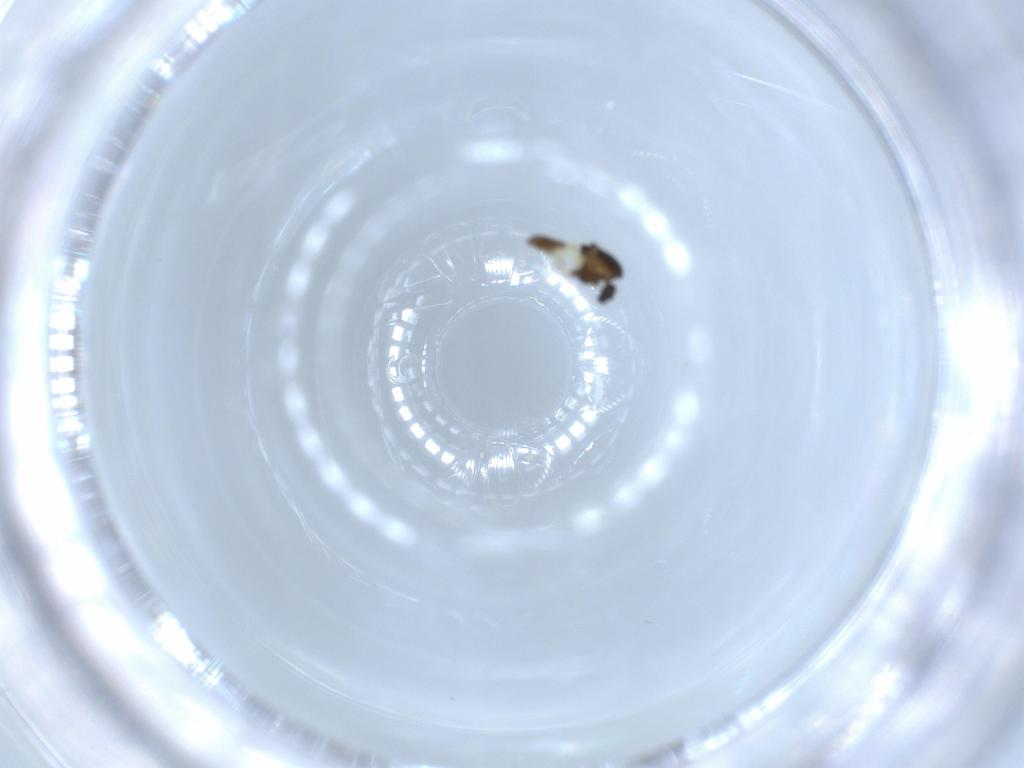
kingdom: Animalia
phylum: Arthropoda
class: Insecta
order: Diptera
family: Chironomidae
